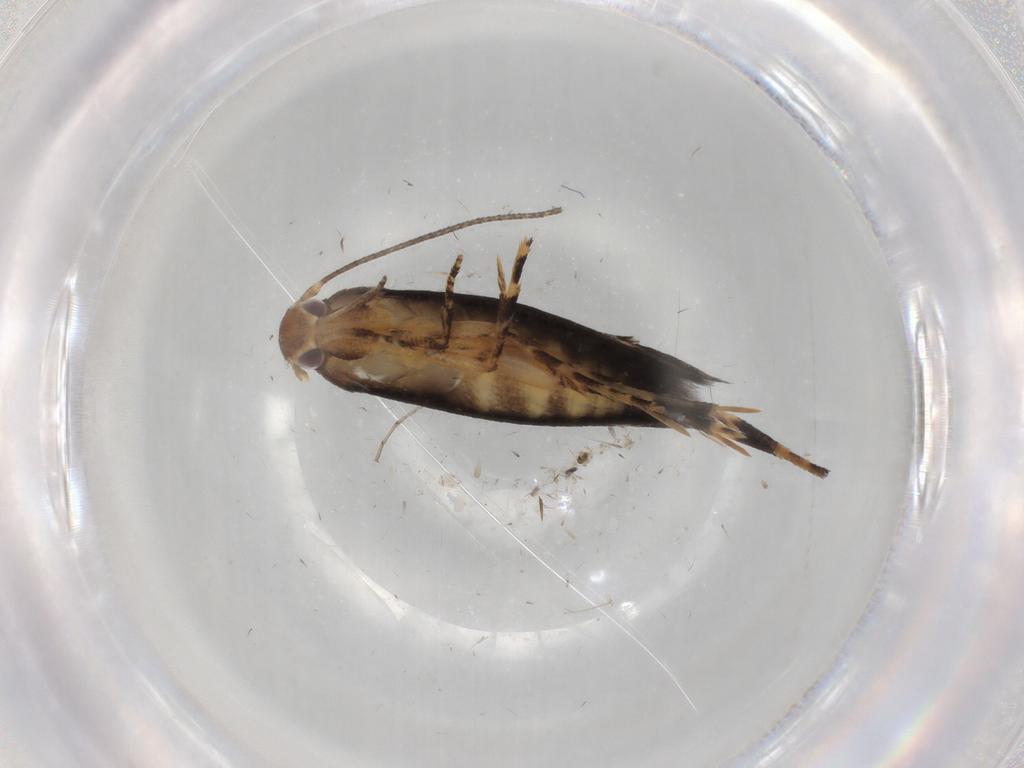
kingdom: Animalia
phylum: Arthropoda
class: Insecta
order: Lepidoptera
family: Momphidae
